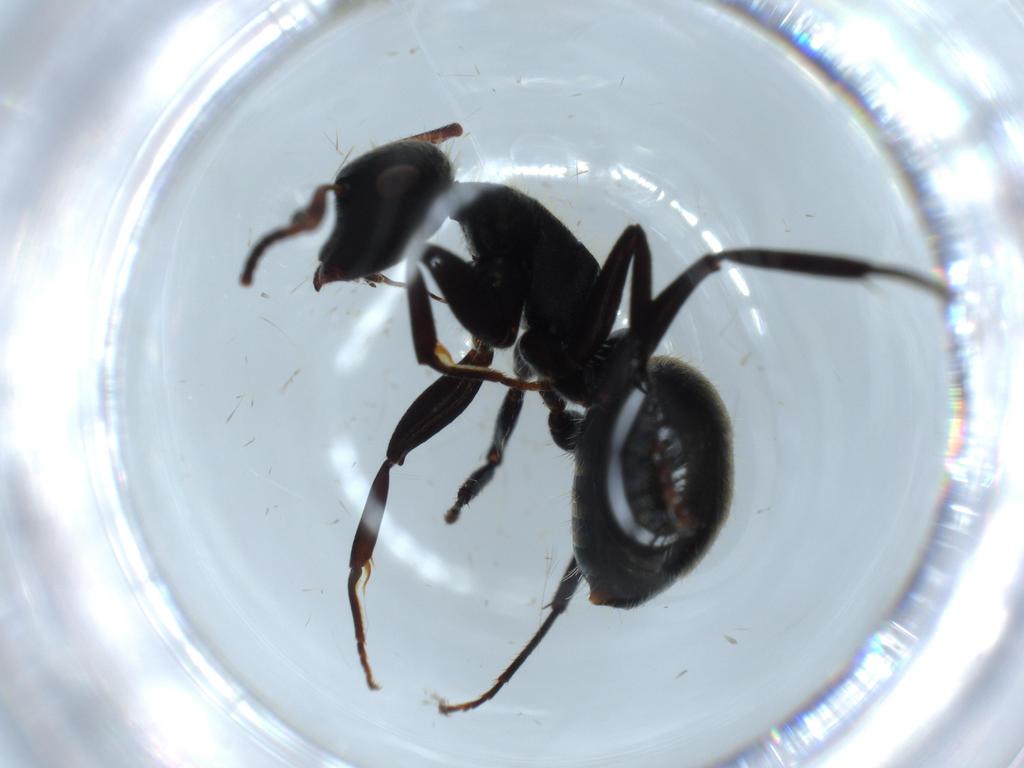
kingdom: Animalia
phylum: Arthropoda
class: Insecta
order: Hymenoptera
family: Formicidae
